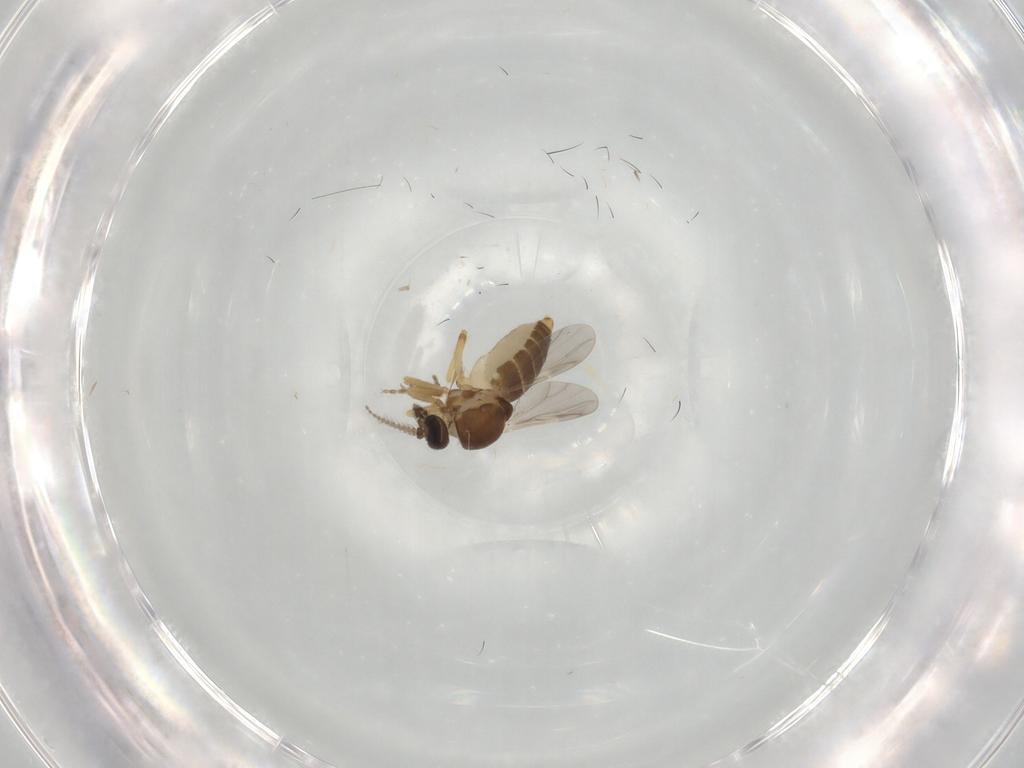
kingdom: Animalia
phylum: Arthropoda
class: Insecta
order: Diptera
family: Ceratopogonidae
